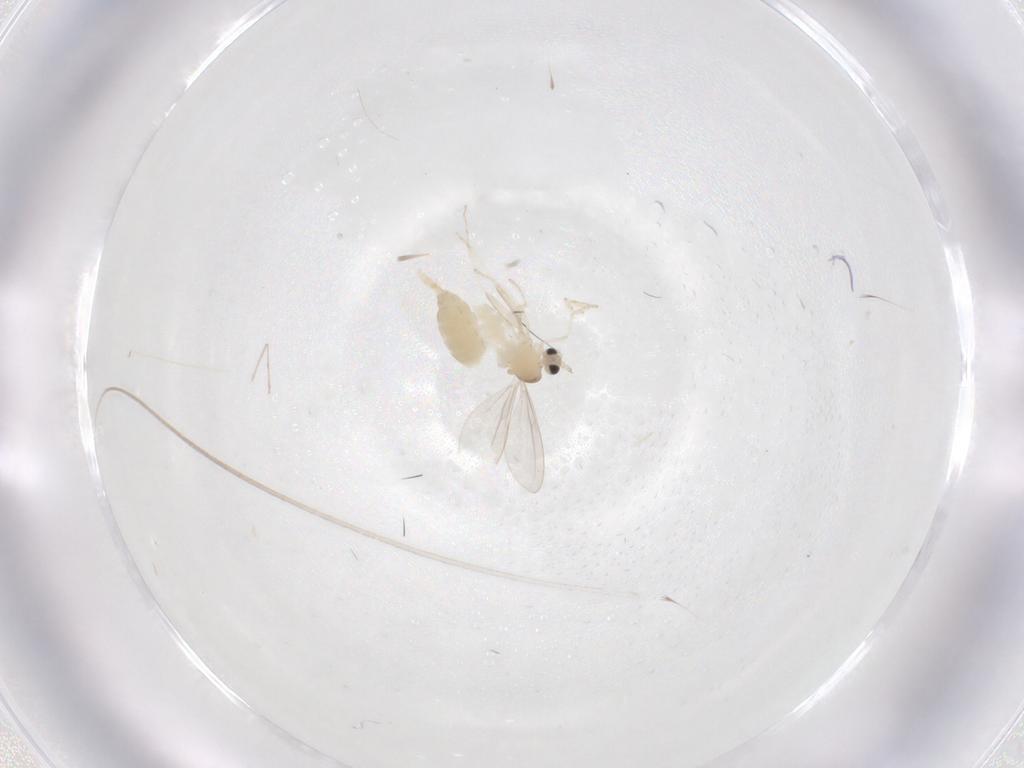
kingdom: Animalia
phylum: Arthropoda
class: Insecta
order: Diptera
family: Cecidomyiidae
